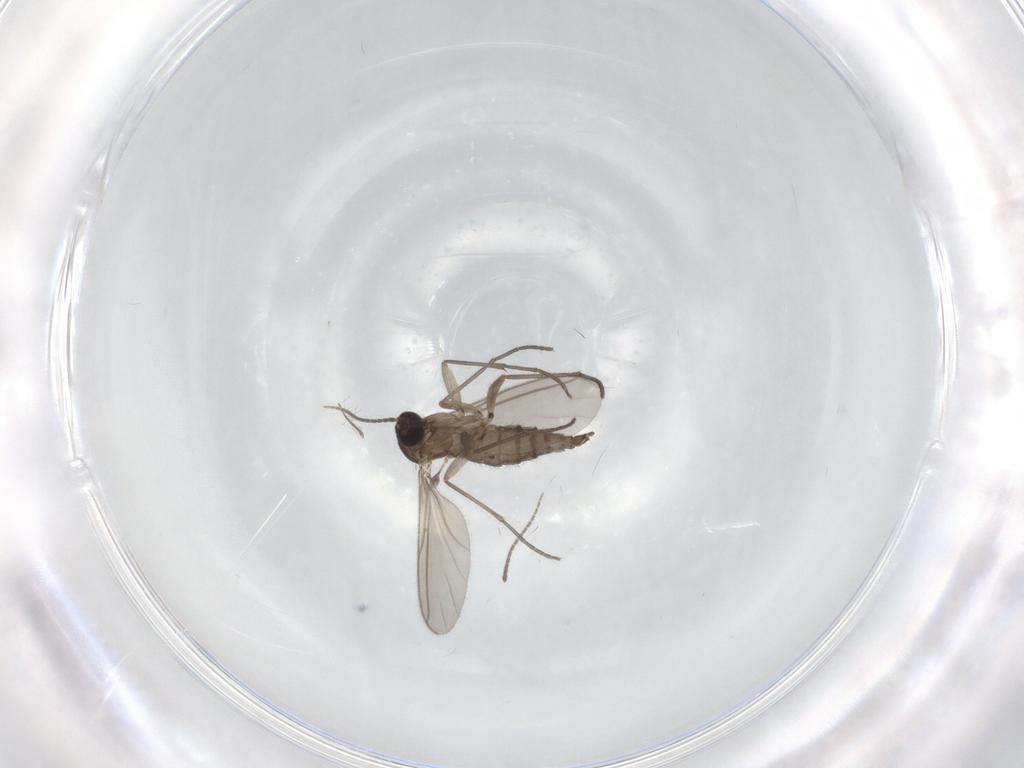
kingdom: Animalia
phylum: Arthropoda
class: Insecta
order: Diptera
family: Sciaridae
